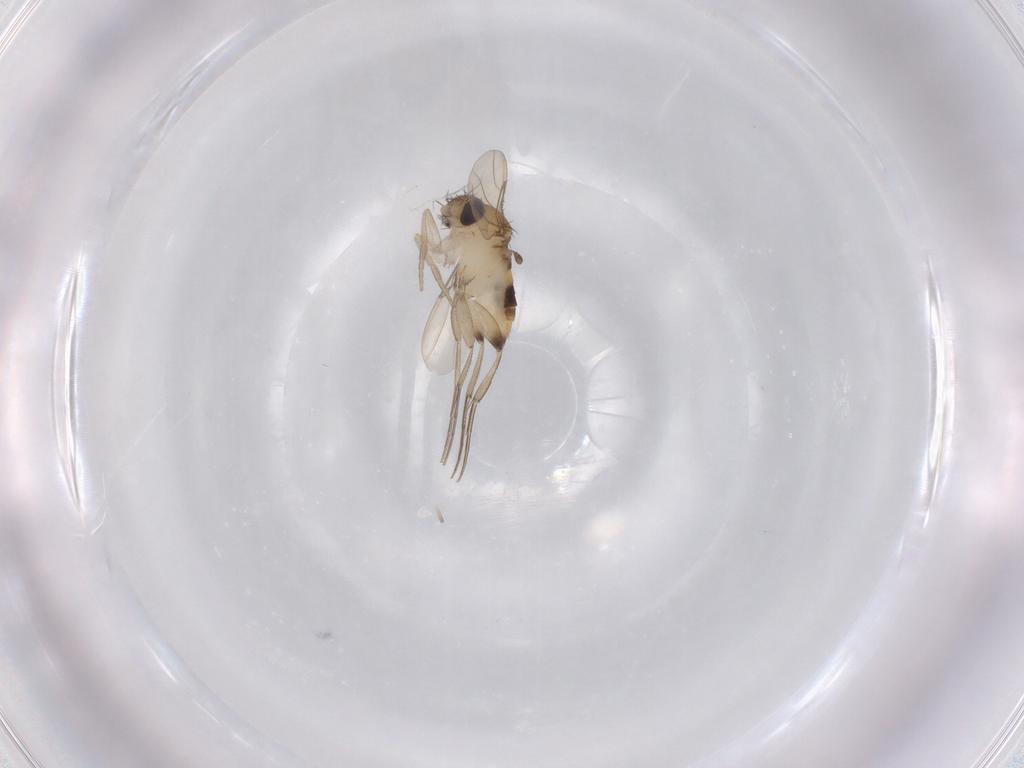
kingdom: Animalia
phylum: Arthropoda
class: Insecta
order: Diptera
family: Phoridae
